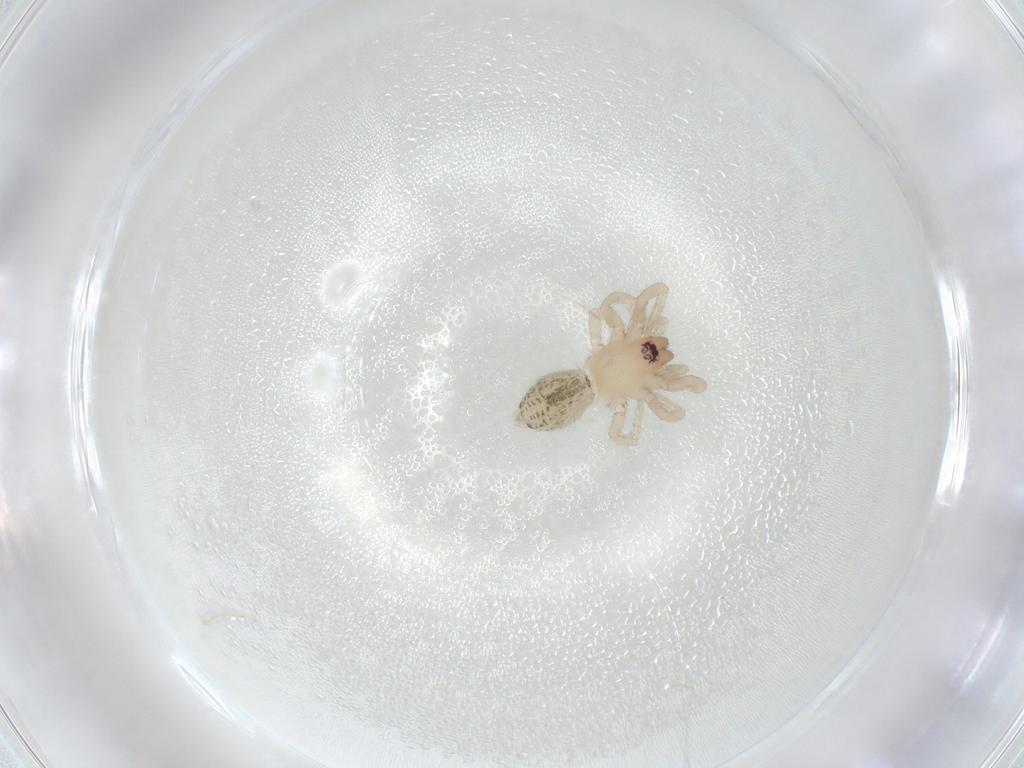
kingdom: Animalia
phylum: Arthropoda
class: Arachnida
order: Araneae
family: Gnaphosidae
